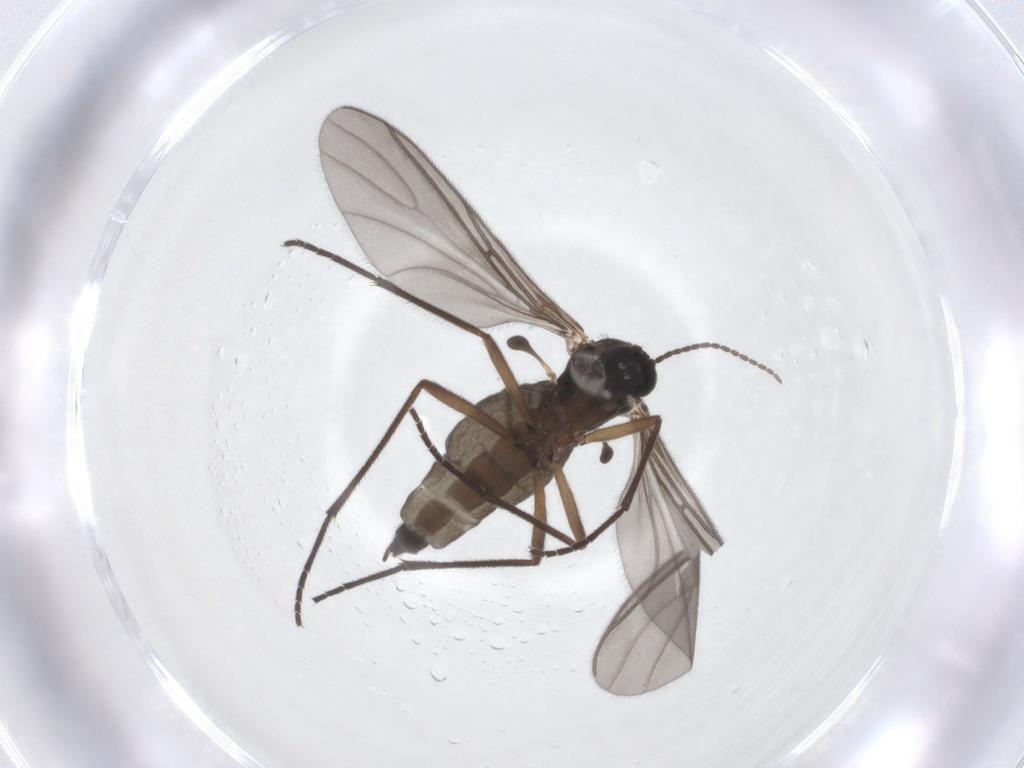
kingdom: Animalia
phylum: Arthropoda
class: Insecta
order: Diptera
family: Sciaridae
